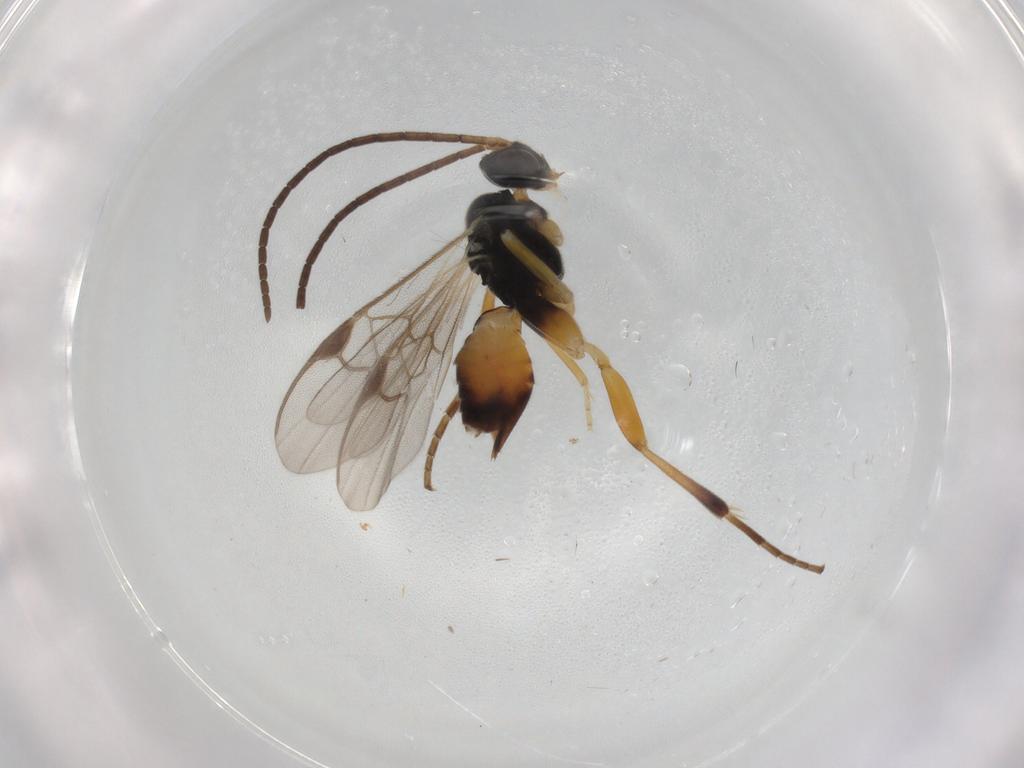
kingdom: Animalia
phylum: Arthropoda
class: Insecta
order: Hymenoptera
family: Braconidae
